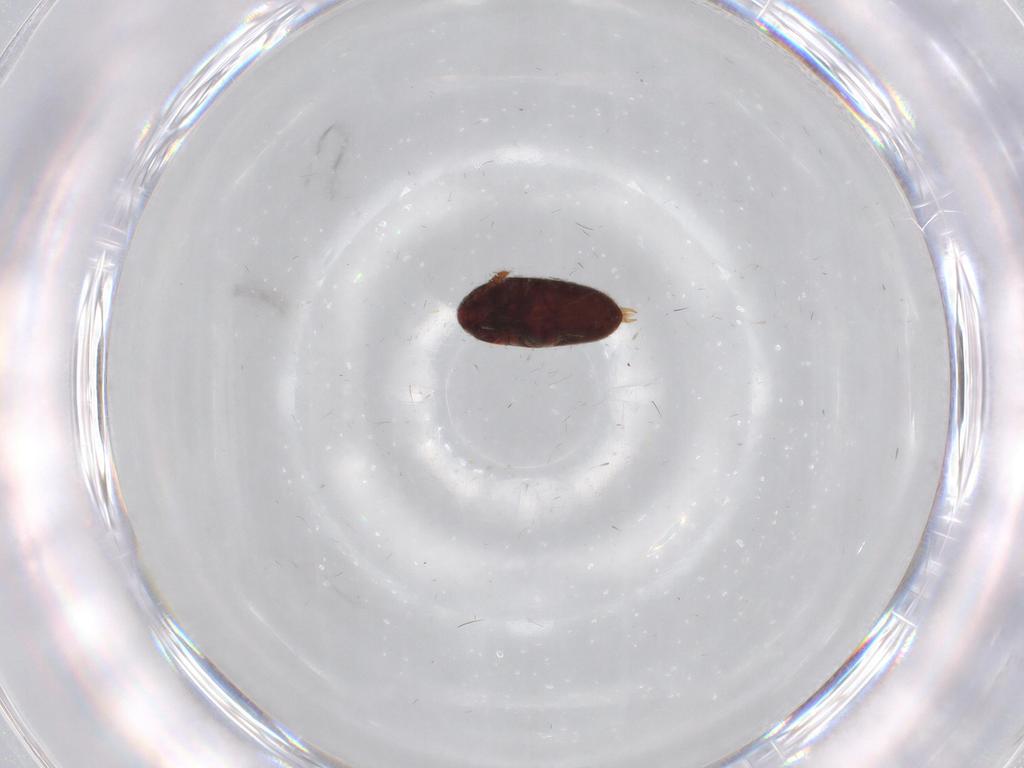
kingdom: Animalia
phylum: Arthropoda
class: Insecta
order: Coleoptera
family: Throscidae
